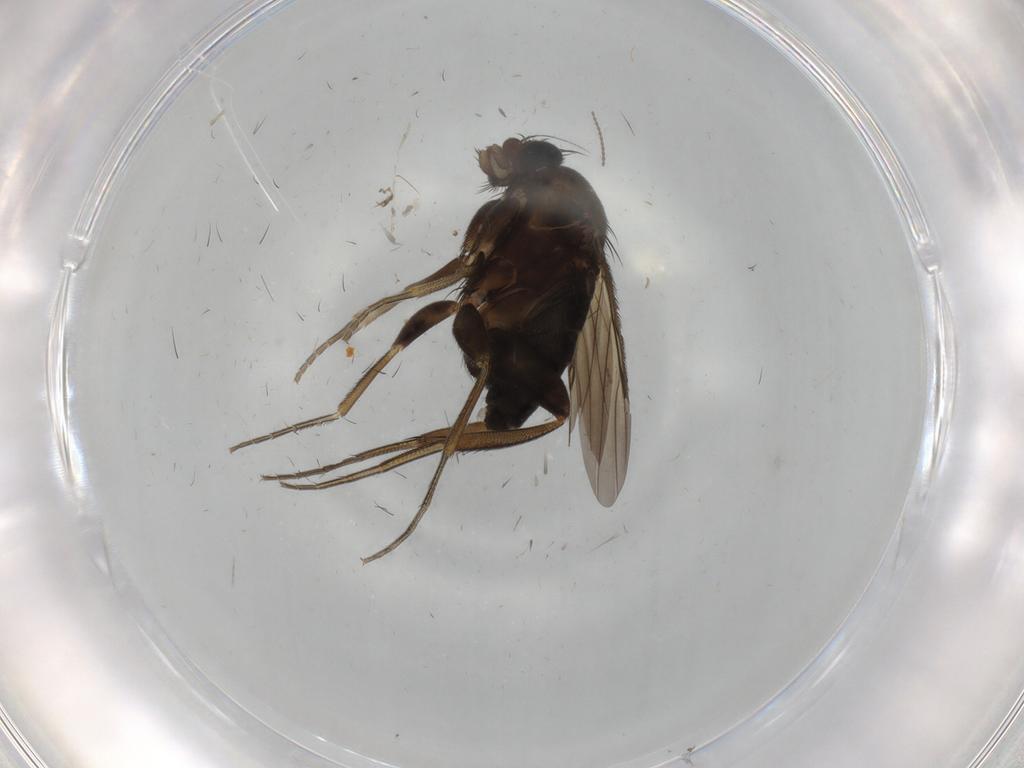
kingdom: Animalia
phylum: Arthropoda
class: Insecta
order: Diptera
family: Phoridae
